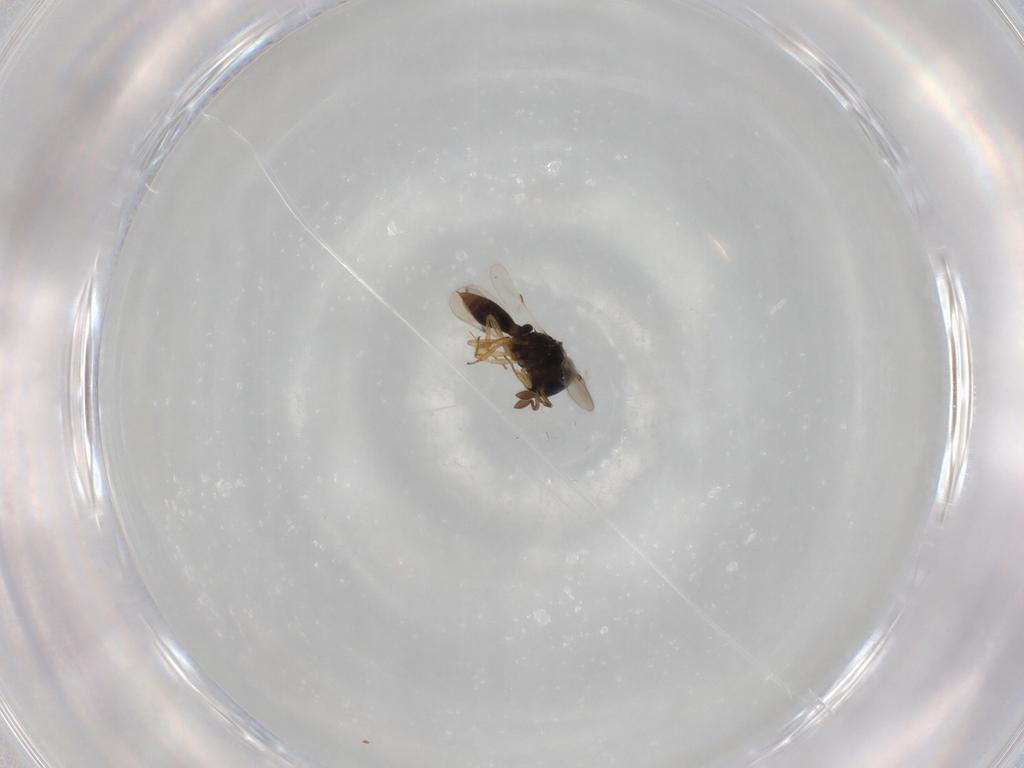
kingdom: Animalia
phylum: Arthropoda
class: Insecta
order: Hymenoptera
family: Scelionidae
